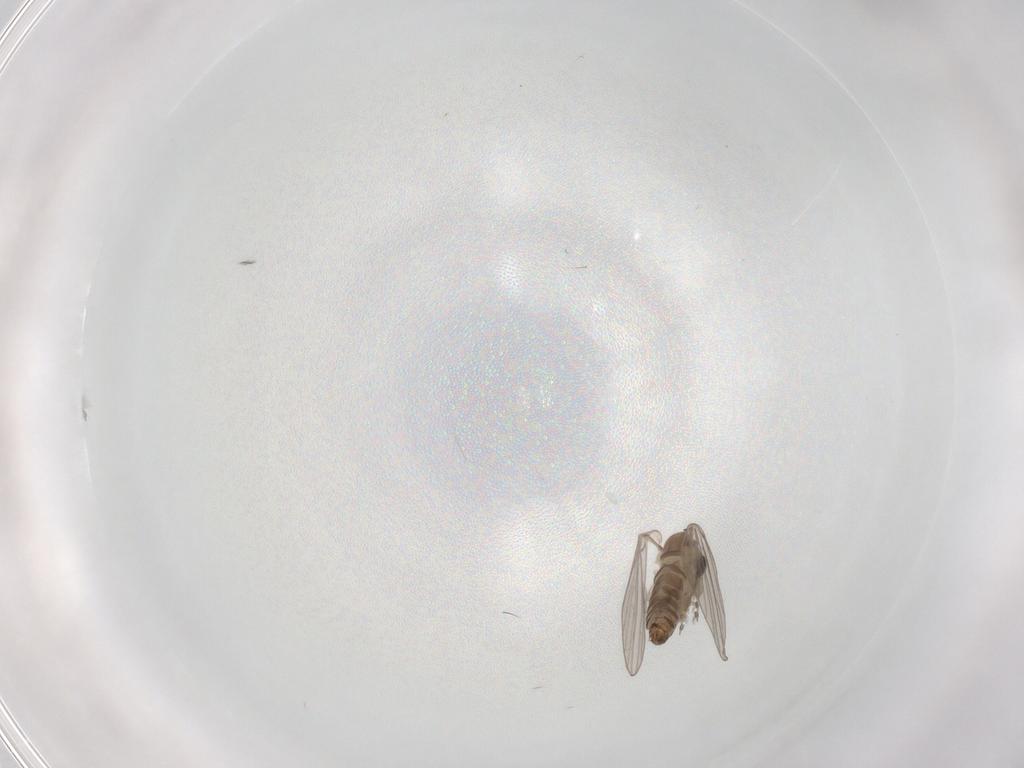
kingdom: Animalia
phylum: Arthropoda
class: Insecta
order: Diptera
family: Psychodidae
